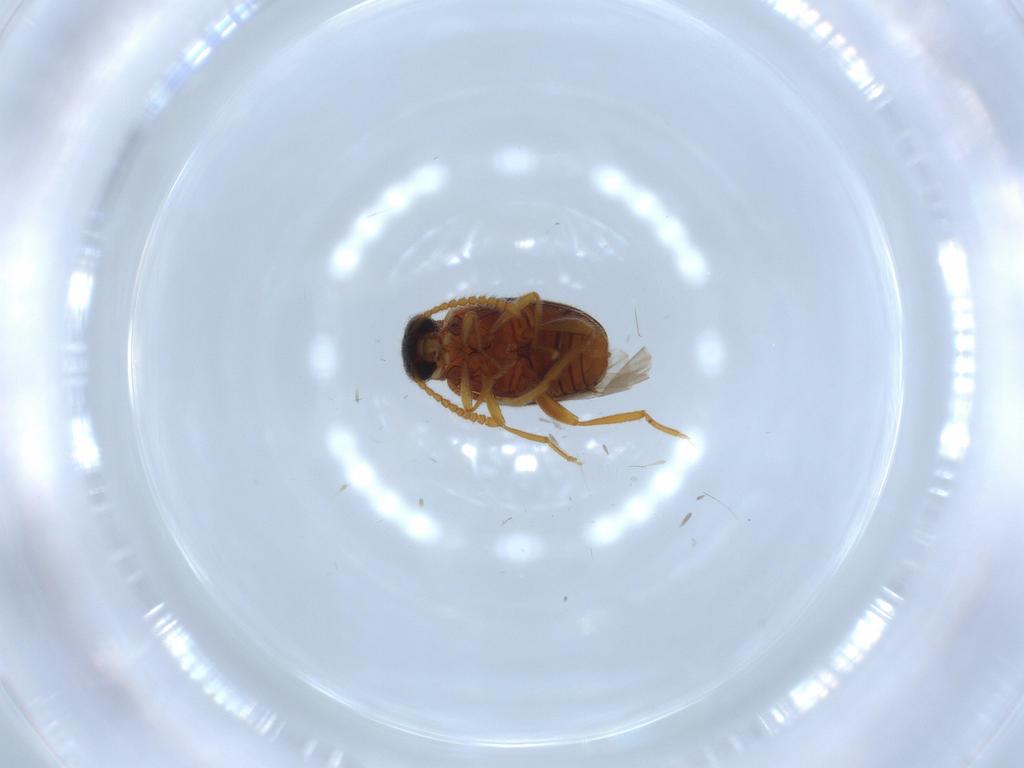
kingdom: Animalia
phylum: Arthropoda
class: Insecta
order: Coleoptera
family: Aderidae
